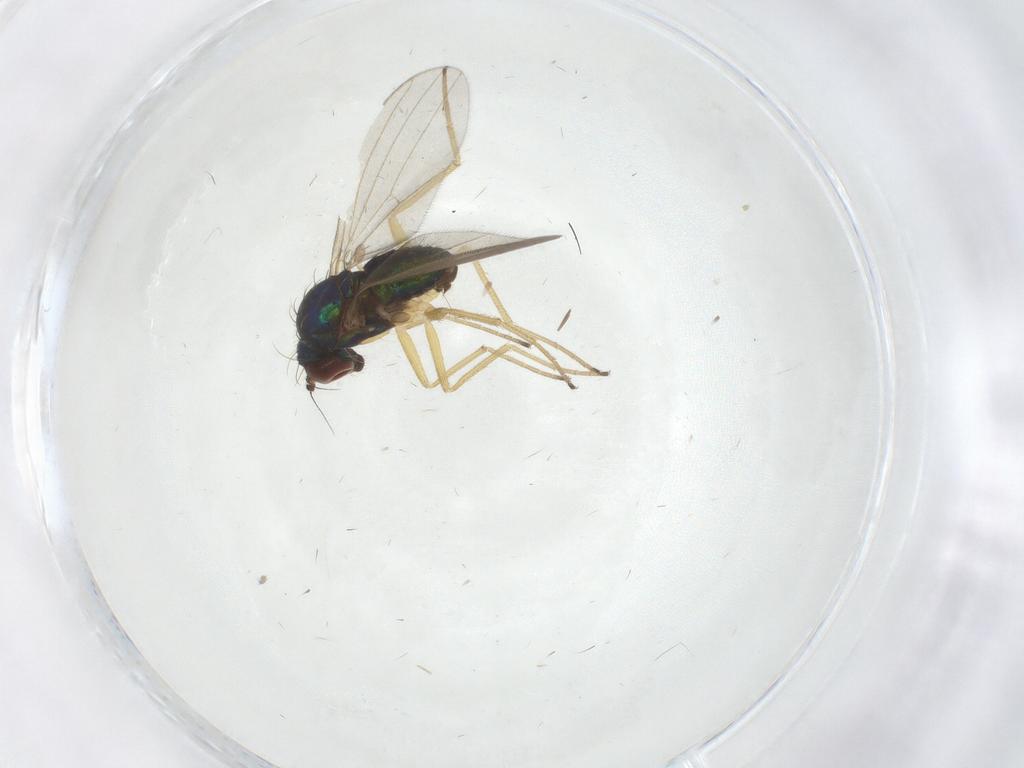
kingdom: Animalia
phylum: Arthropoda
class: Insecta
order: Diptera
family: Dolichopodidae
